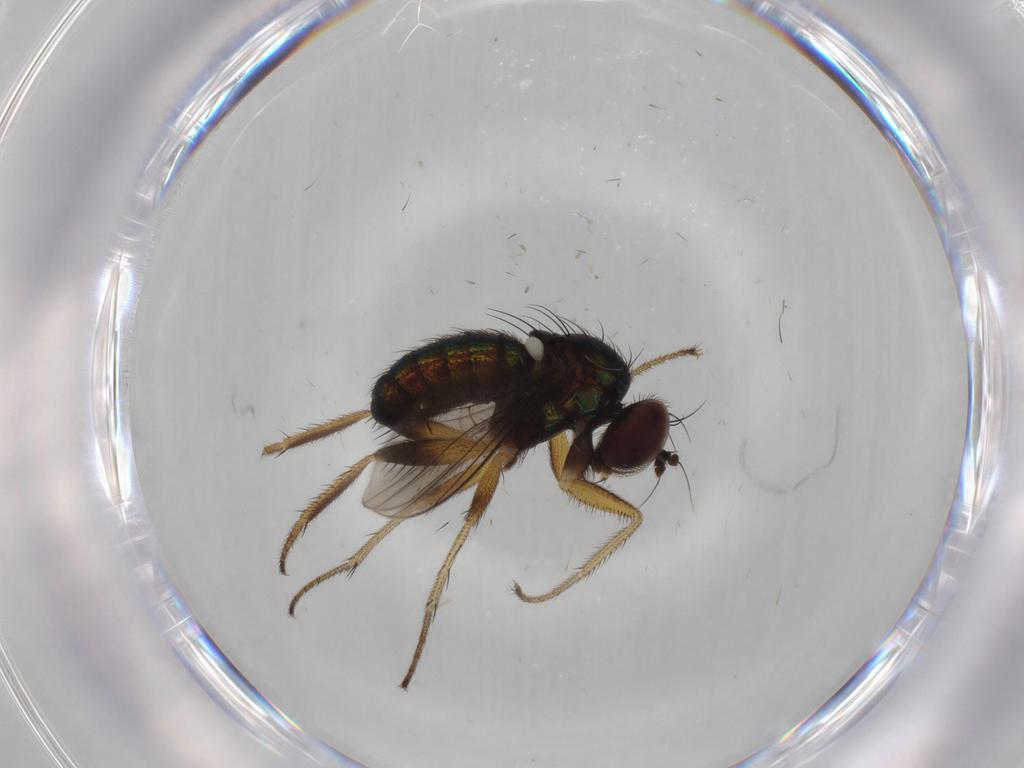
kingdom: Animalia
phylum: Arthropoda
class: Insecta
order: Diptera
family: Dolichopodidae
